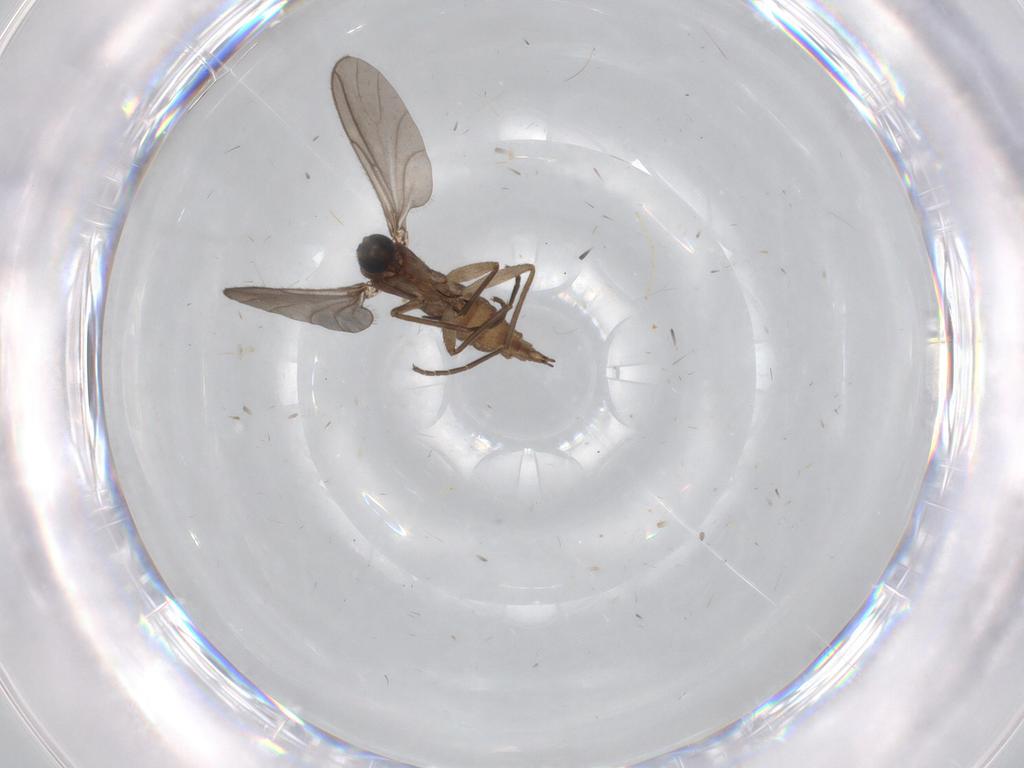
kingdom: Animalia
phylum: Arthropoda
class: Insecta
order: Diptera
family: Chironomidae
